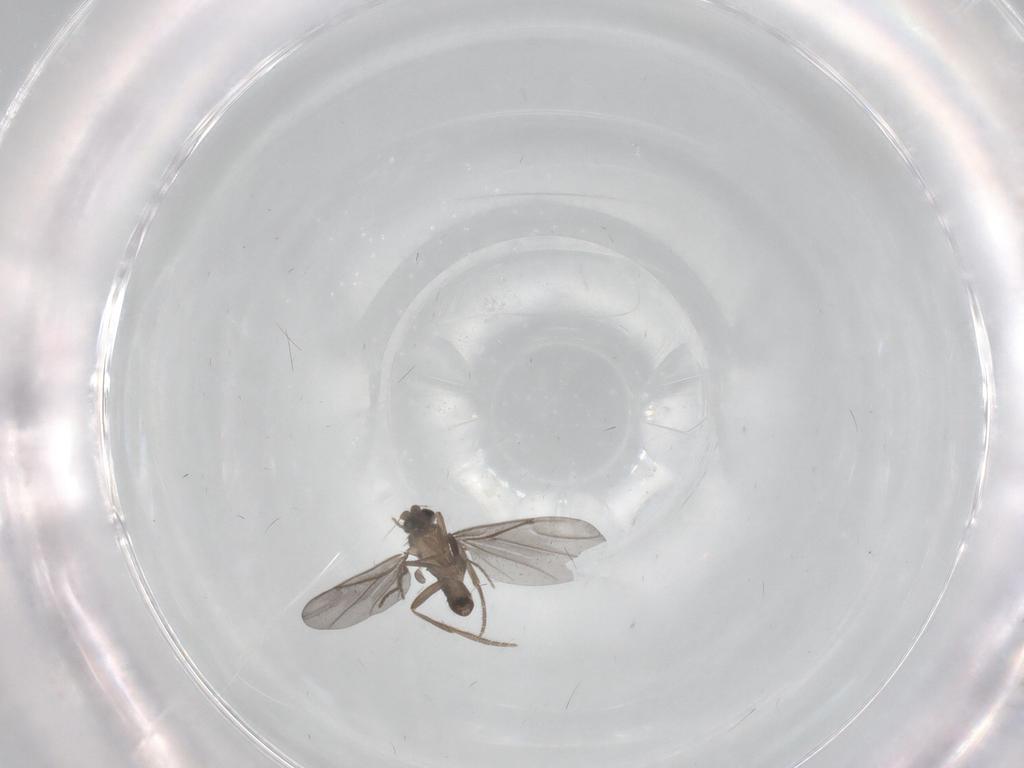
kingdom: Animalia
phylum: Arthropoda
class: Insecta
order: Diptera
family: Phoridae
